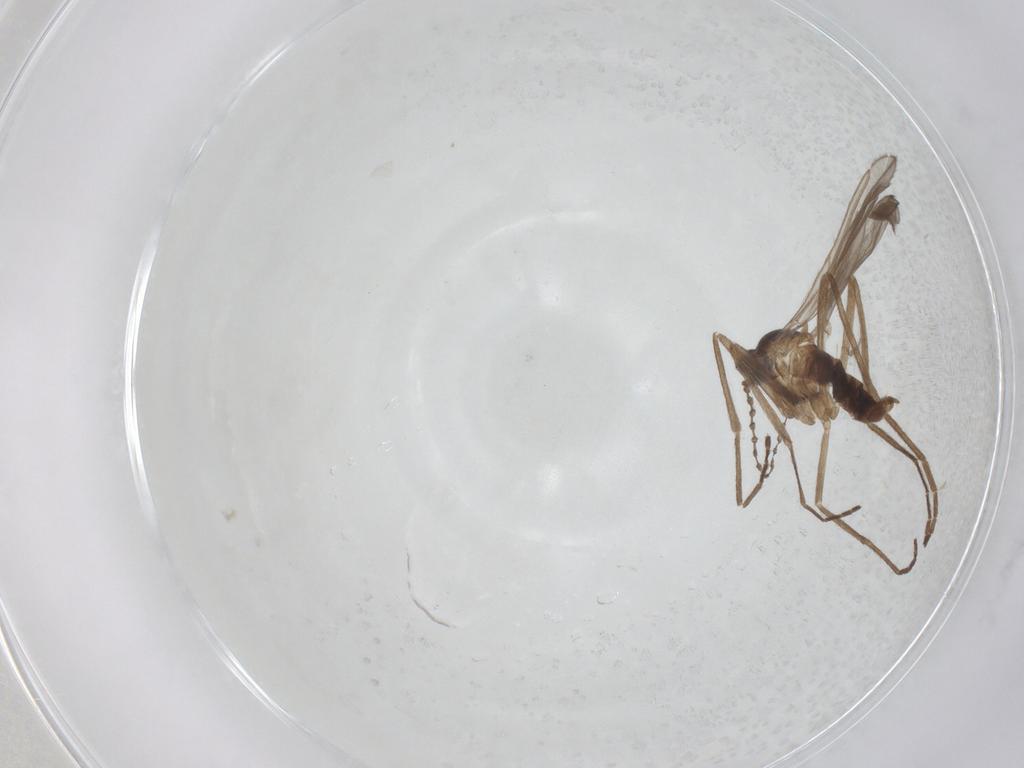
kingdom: Animalia
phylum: Arthropoda
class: Insecta
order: Diptera
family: Cecidomyiidae
